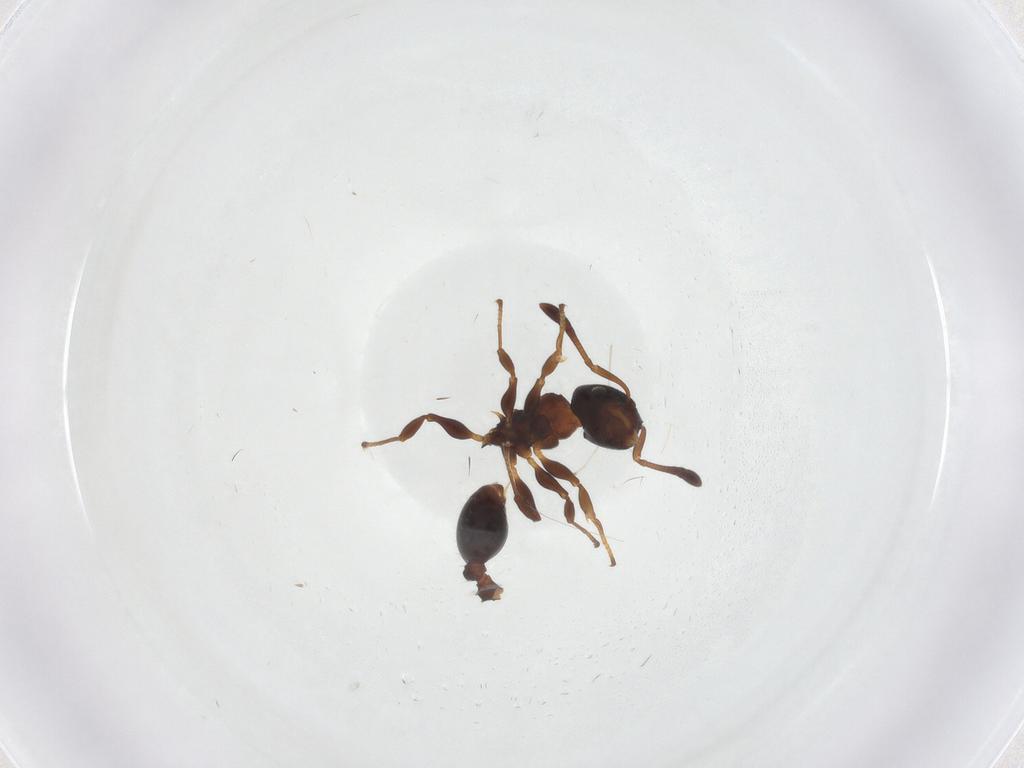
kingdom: Animalia
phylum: Arthropoda
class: Insecta
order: Hymenoptera
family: Formicidae
